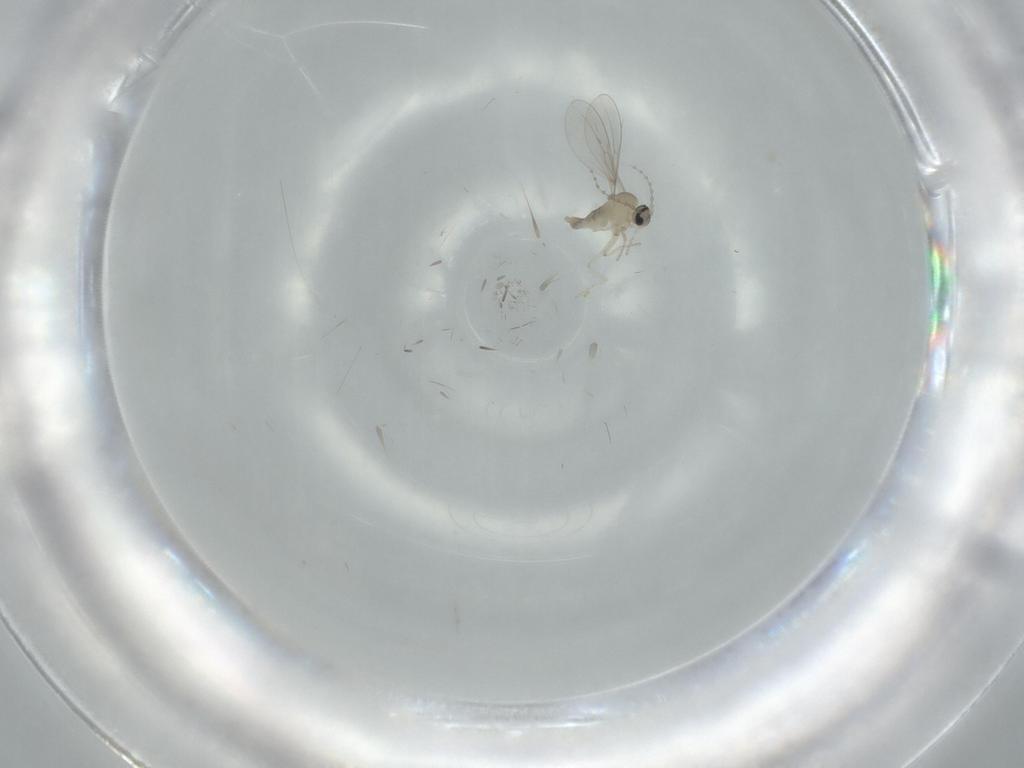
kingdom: Animalia
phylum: Arthropoda
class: Insecta
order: Diptera
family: Cecidomyiidae
